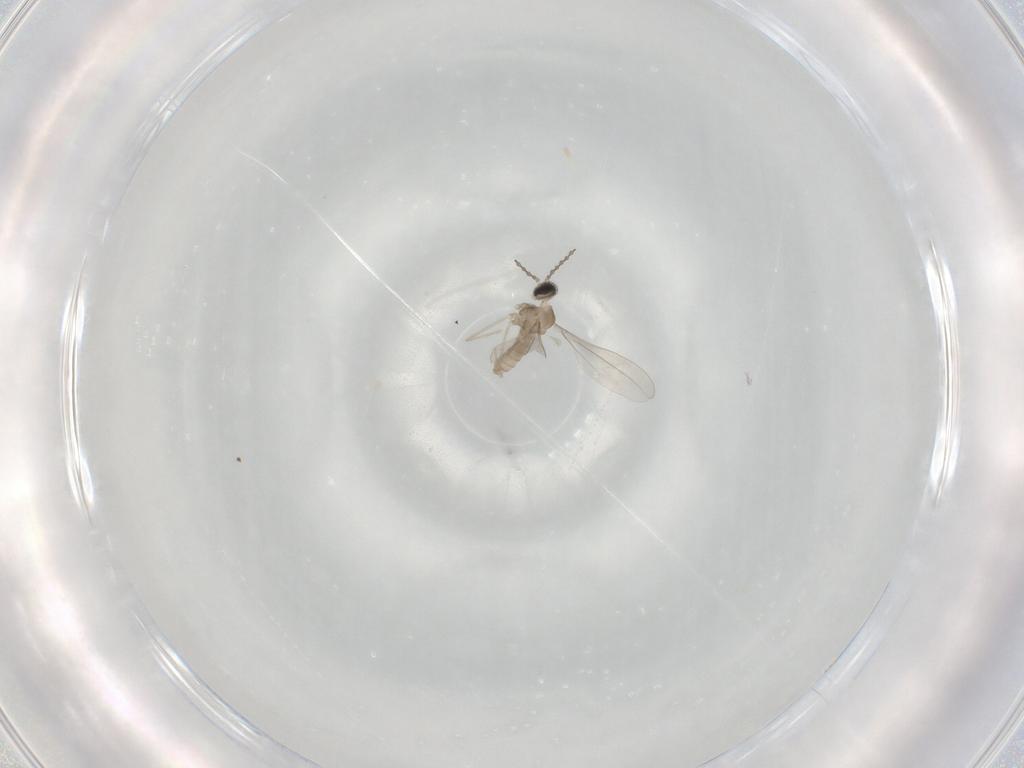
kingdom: Animalia
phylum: Arthropoda
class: Insecta
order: Diptera
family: Cecidomyiidae
